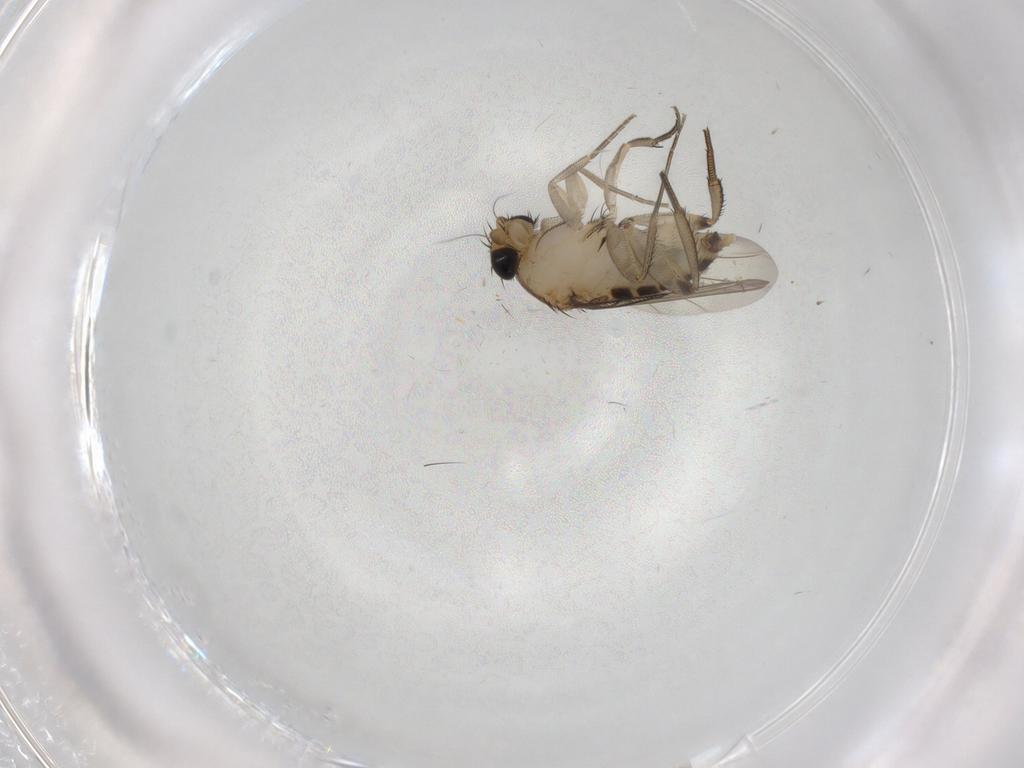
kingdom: Animalia
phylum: Arthropoda
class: Insecta
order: Diptera
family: Phoridae
